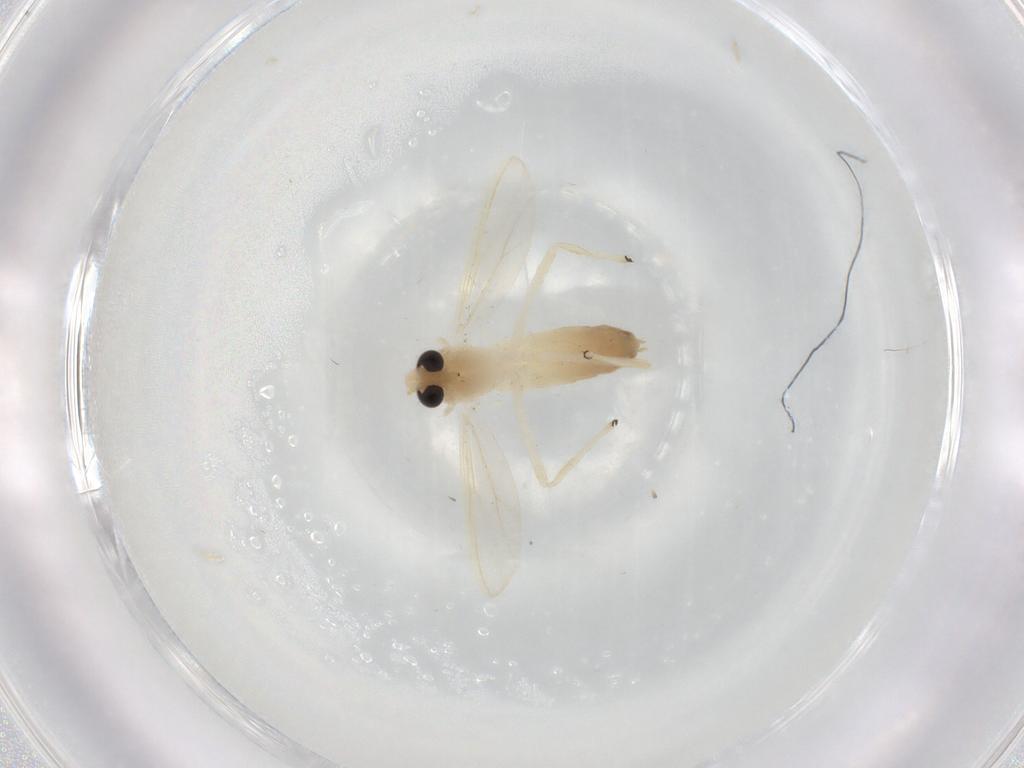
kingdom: Animalia
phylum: Arthropoda
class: Insecta
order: Diptera
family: Chironomidae
